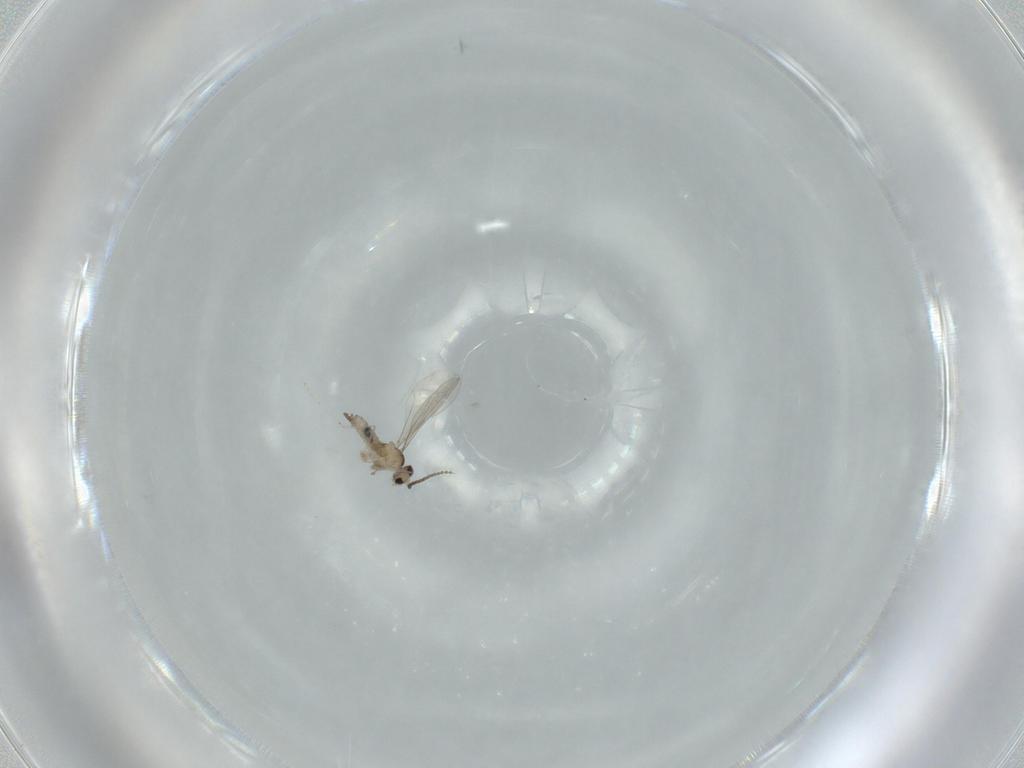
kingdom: Animalia
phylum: Arthropoda
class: Insecta
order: Diptera
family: Cecidomyiidae
